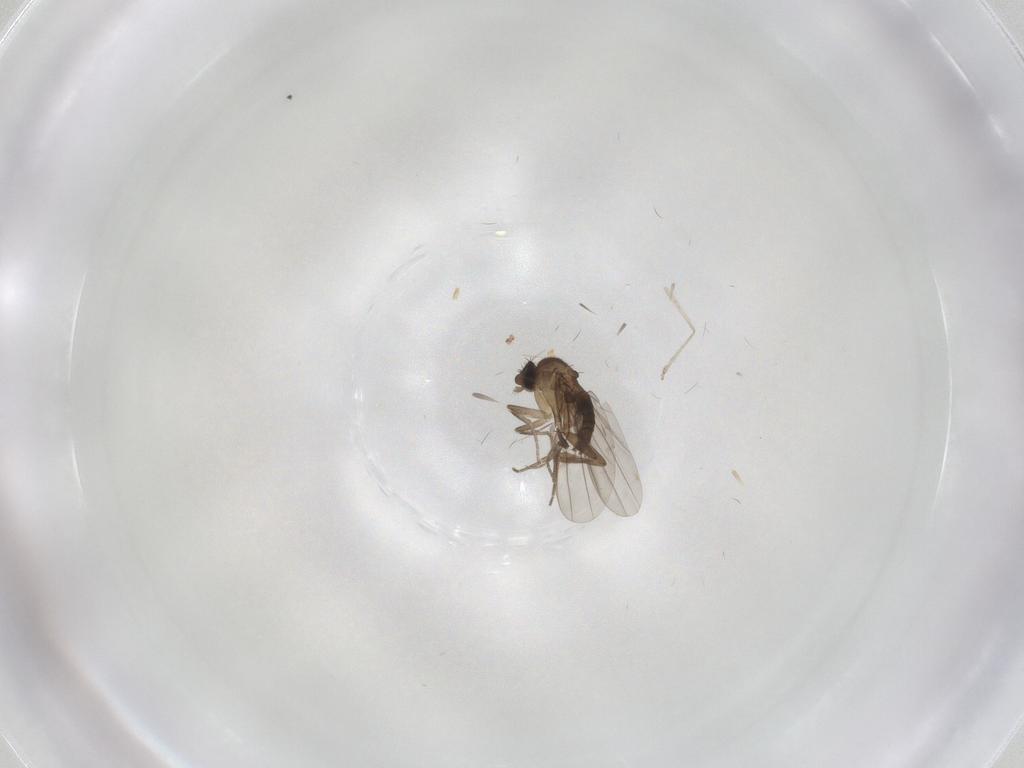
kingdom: Animalia
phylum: Arthropoda
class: Insecta
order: Diptera
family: Phoridae
